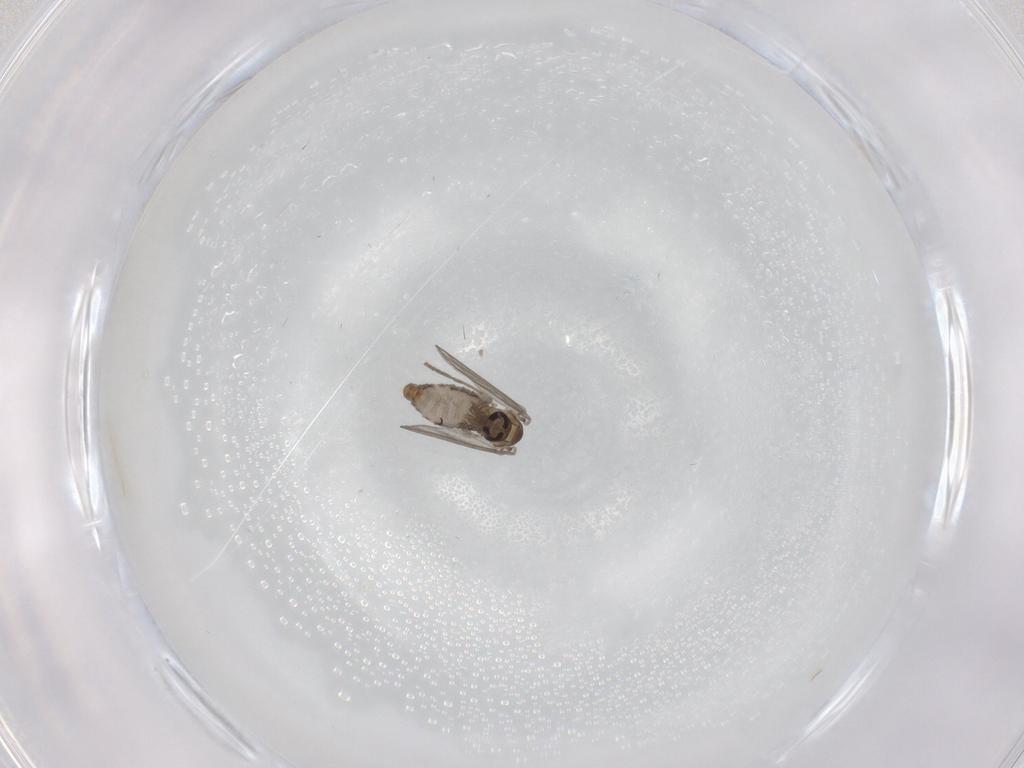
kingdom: Animalia
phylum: Arthropoda
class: Insecta
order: Diptera
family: Psychodidae
